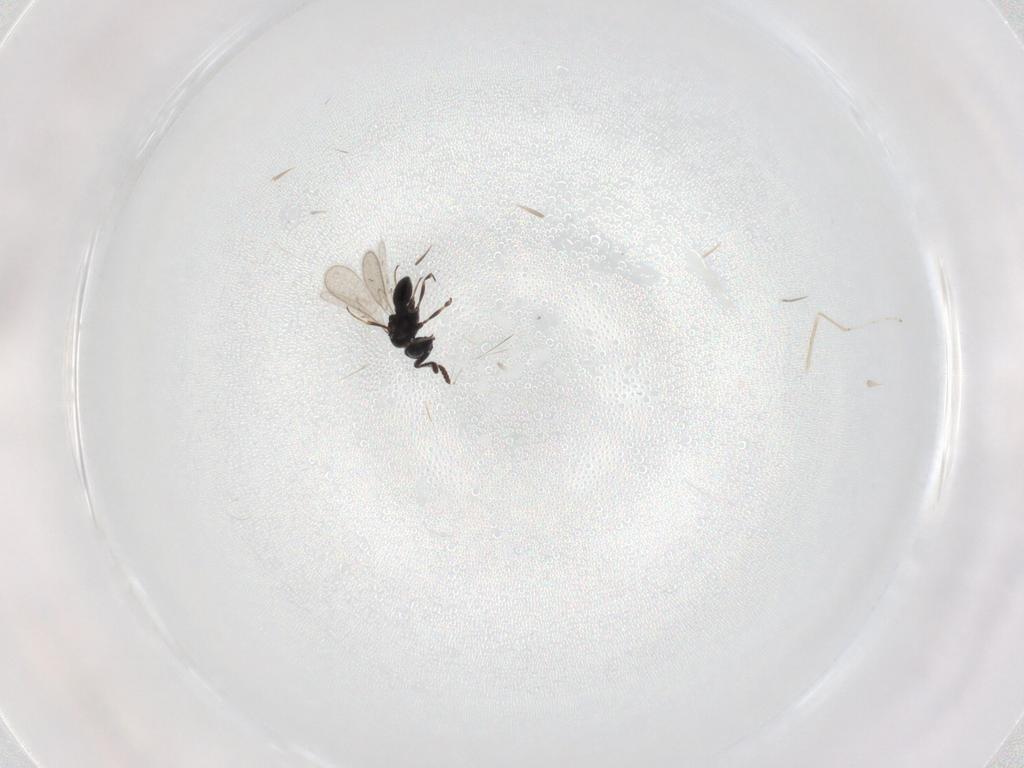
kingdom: Animalia
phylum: Arthropoda
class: Insecta
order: Hymenoptera
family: Scelionidae
